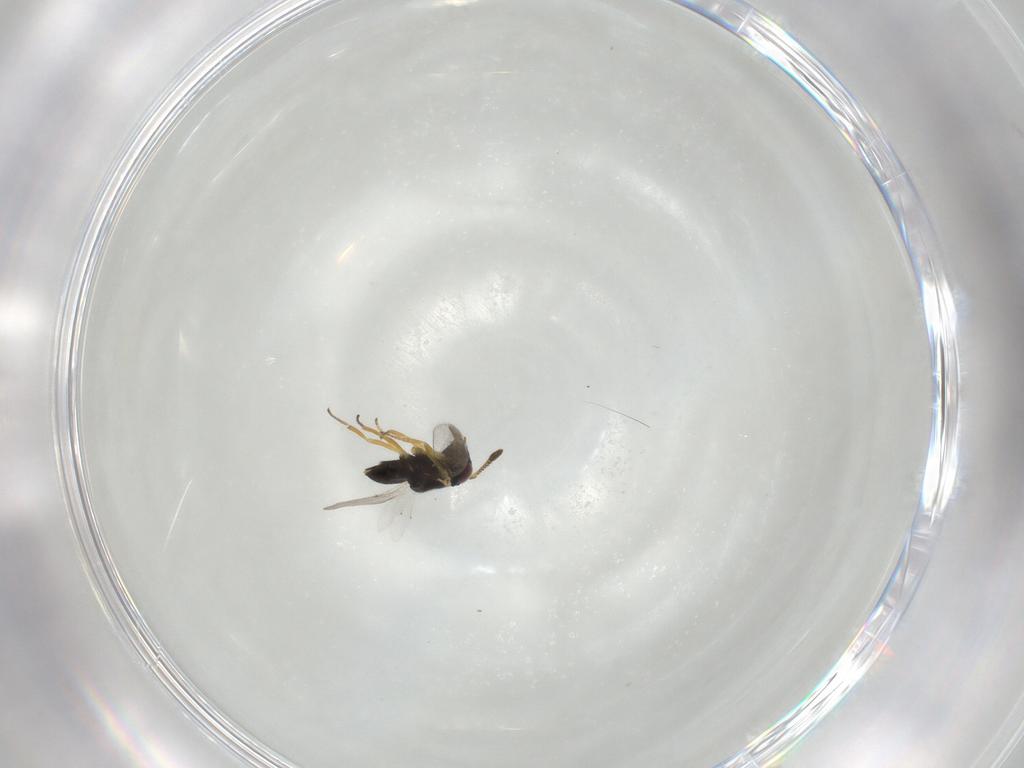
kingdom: Animalia
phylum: Arthropoda
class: Insecta
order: Hymenoptera
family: Encyrtidae
